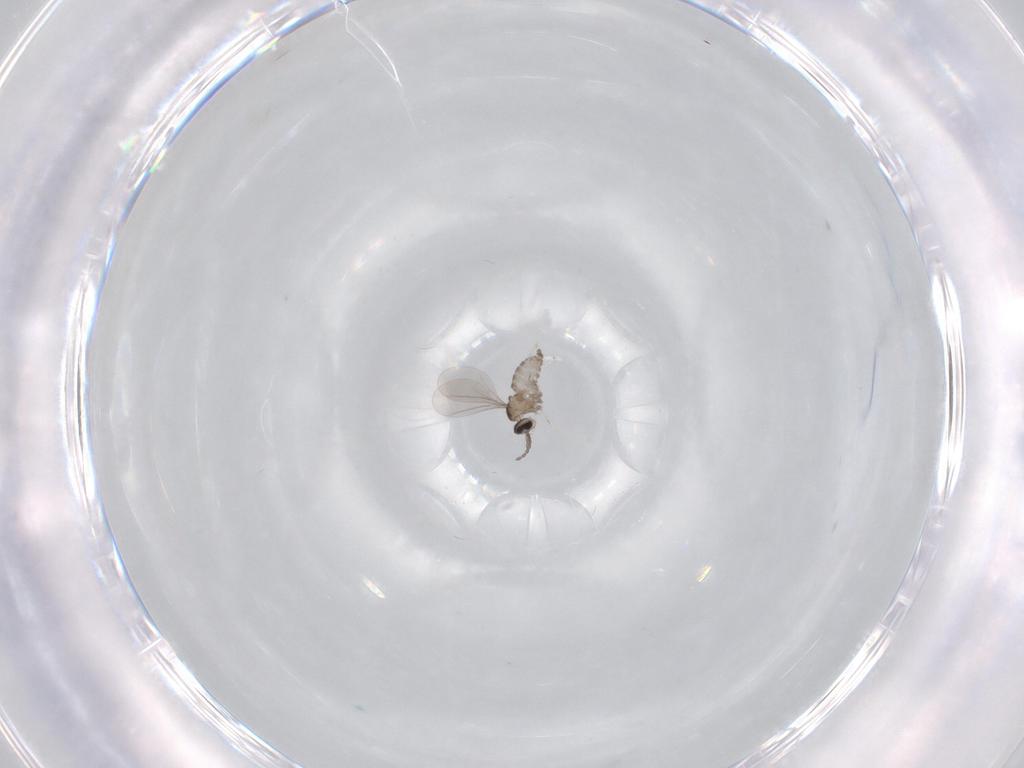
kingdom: Animalia
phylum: Arthropoda
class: Insecta
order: Diptera
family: Cecidomyiidae
